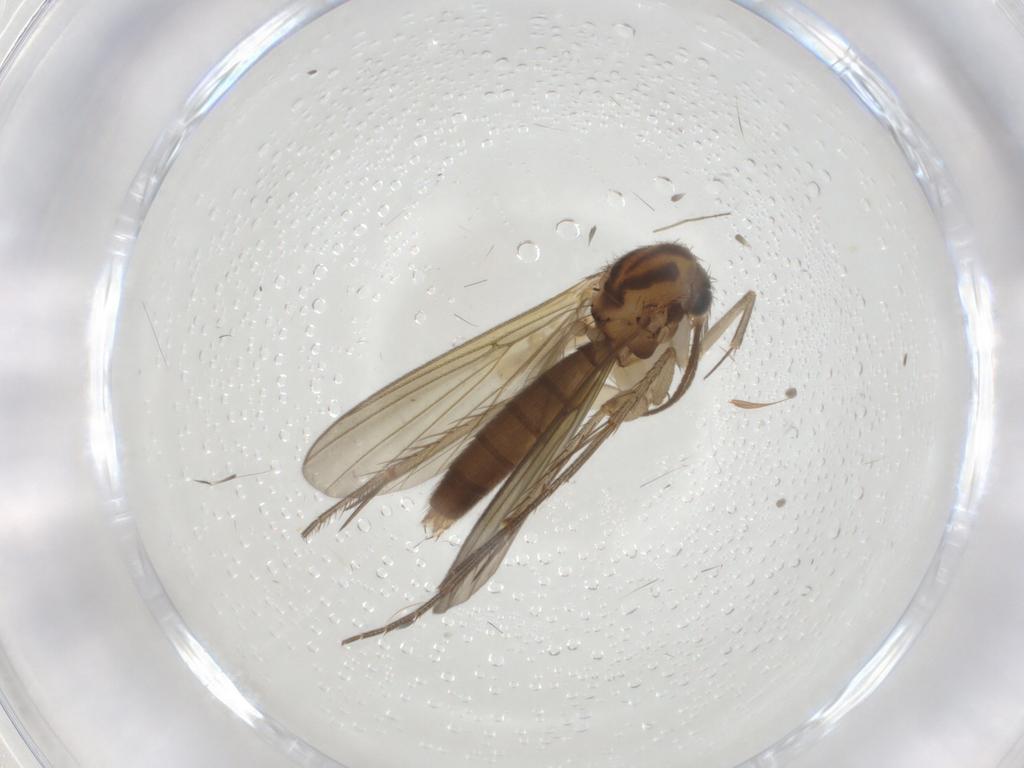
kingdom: Animalia
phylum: Arthropoda
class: Insecta
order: Diptera
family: Mycetophilidae
